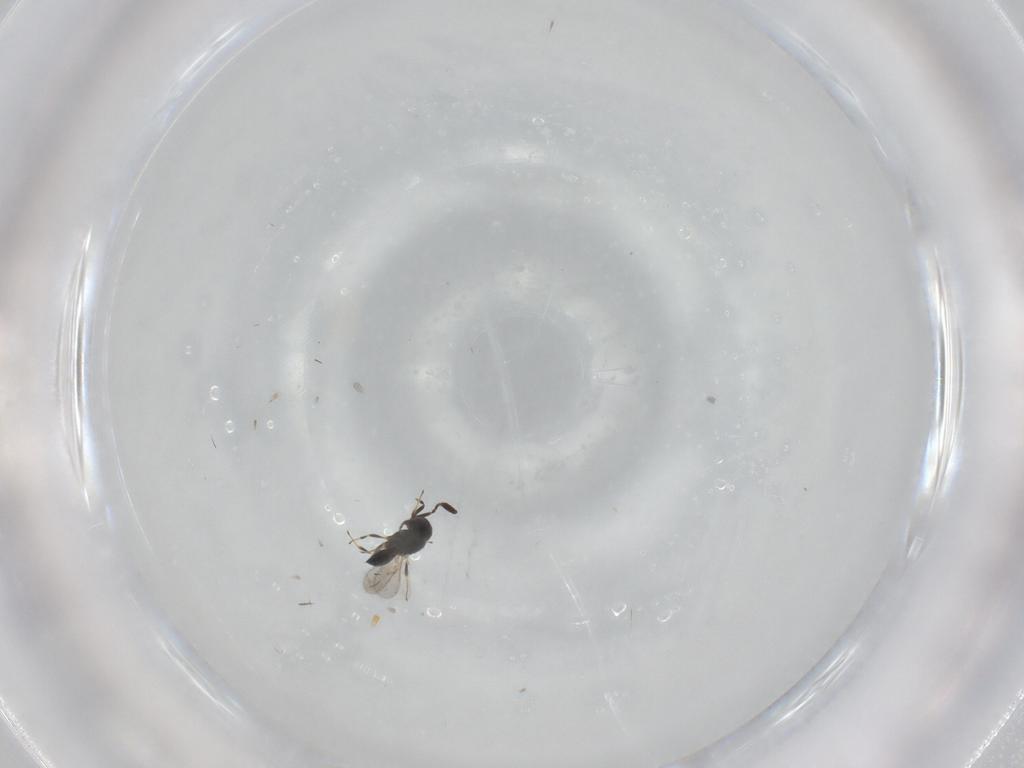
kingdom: Animalia
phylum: Arthropoda
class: Insecta
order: Hymenoptera
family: Scelionidae
